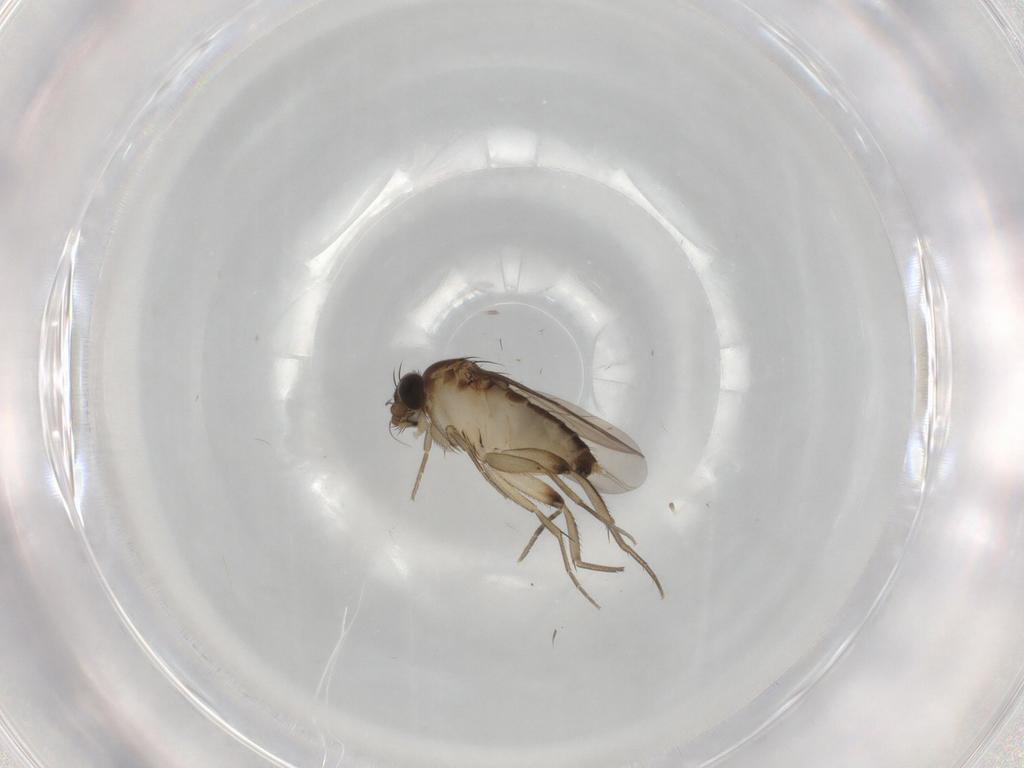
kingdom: Animalia
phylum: Arthropoda
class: Insecta
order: Diptera
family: Phoridae
